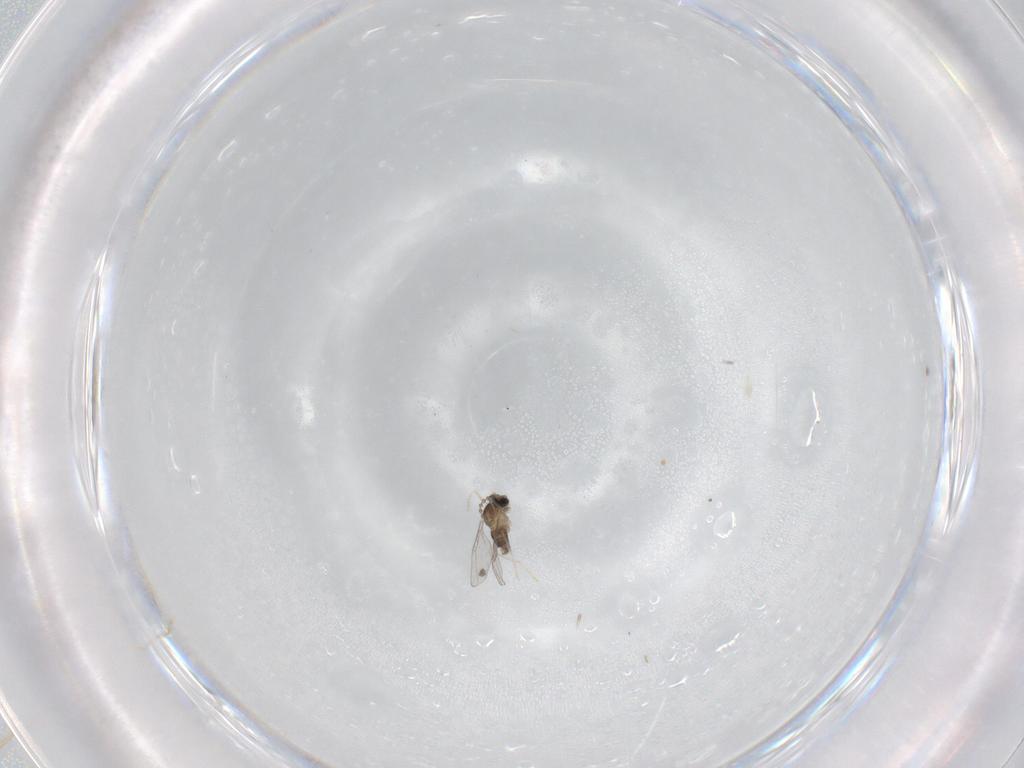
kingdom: Animalia
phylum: Arthropoda
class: Insecta
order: Diptera
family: Cecidomyiidae
